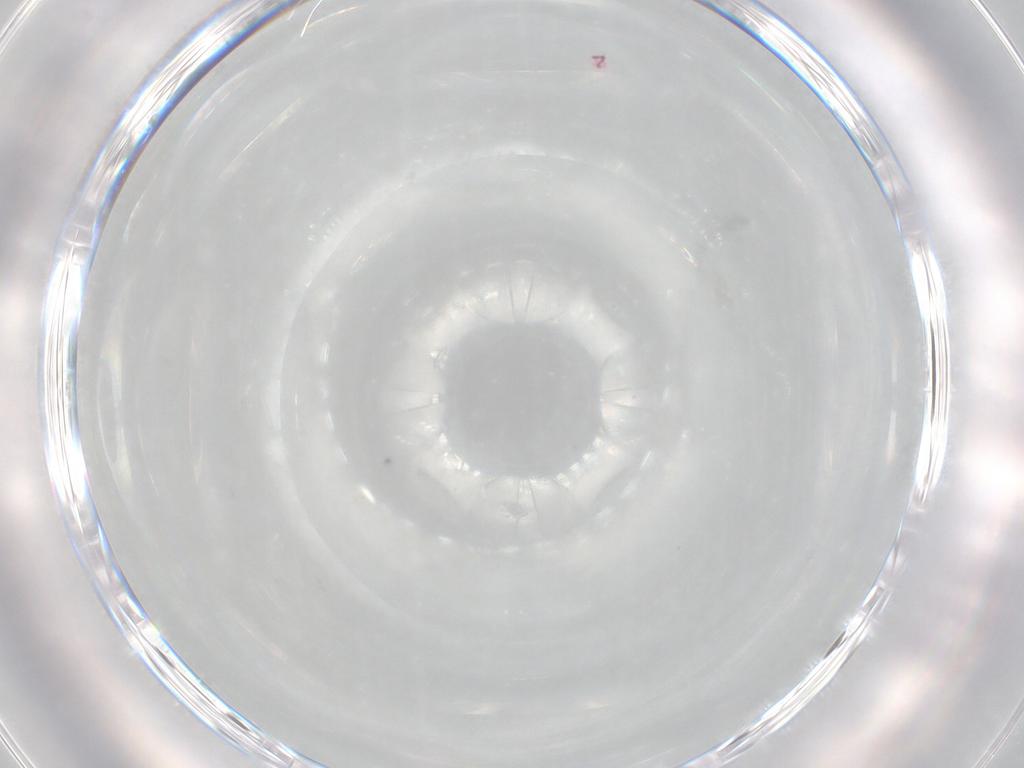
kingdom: Animalia
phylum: Arthropoda
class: Arachnida
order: Trombidiformes
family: Erythraeidae
